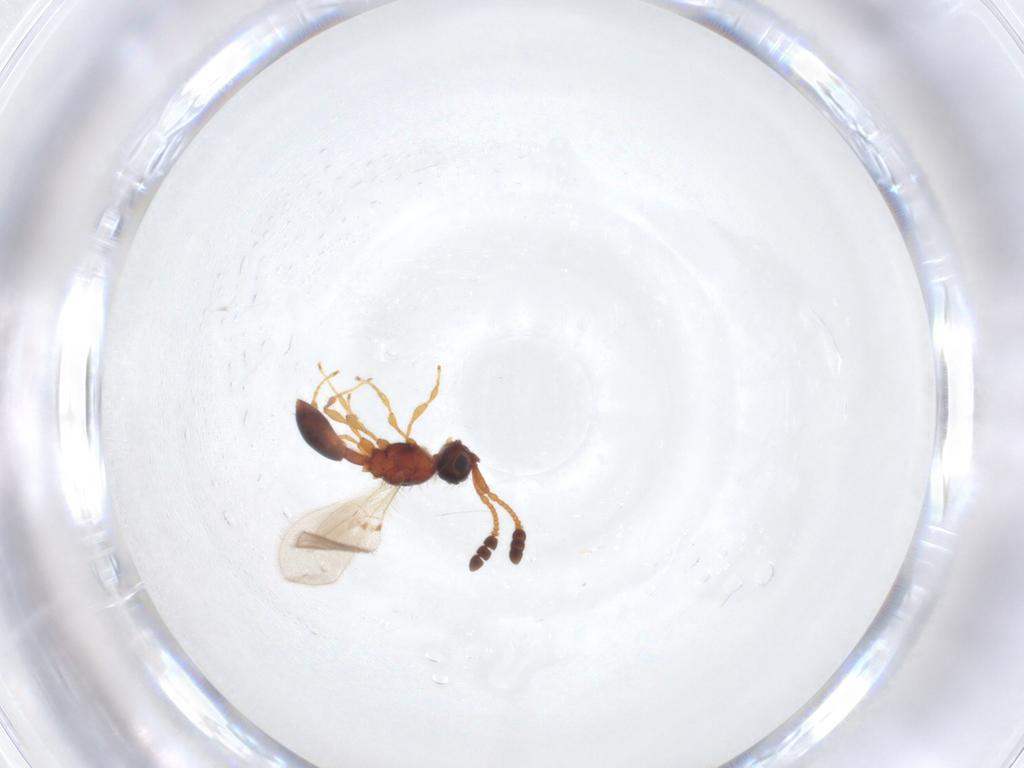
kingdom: Animalia
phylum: Arthropoda
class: Insecta
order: Hymenoptera
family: Diapriidae
